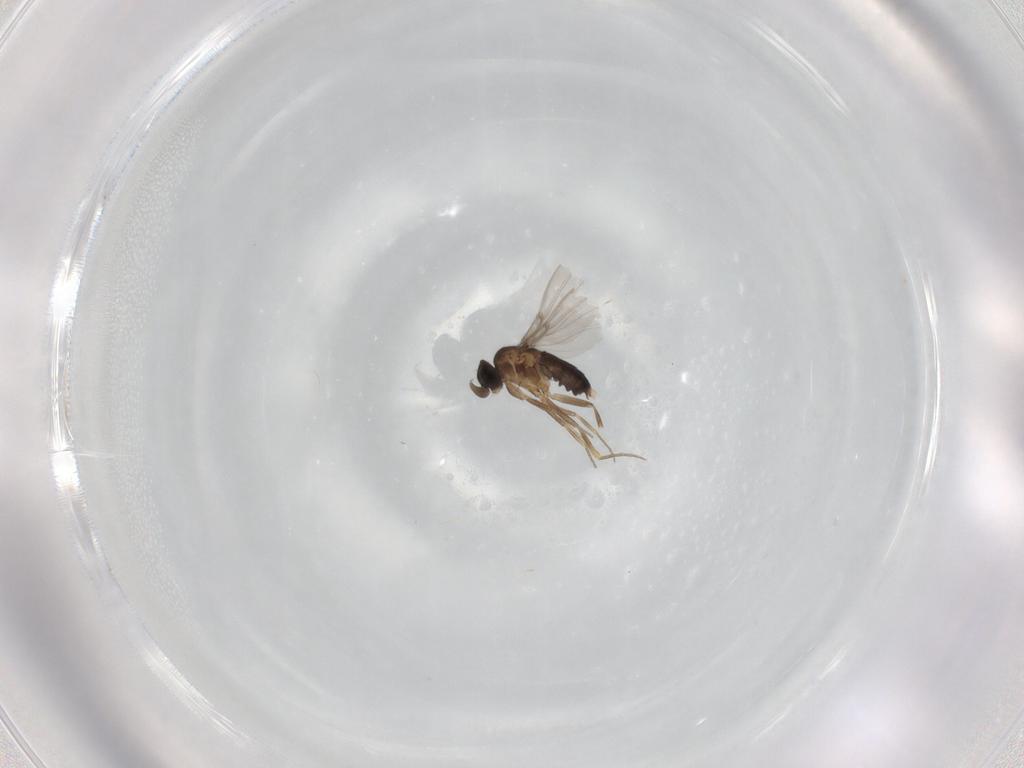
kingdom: Animalia
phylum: Arthropoda
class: Insecta
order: Diptera
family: Phoridae
